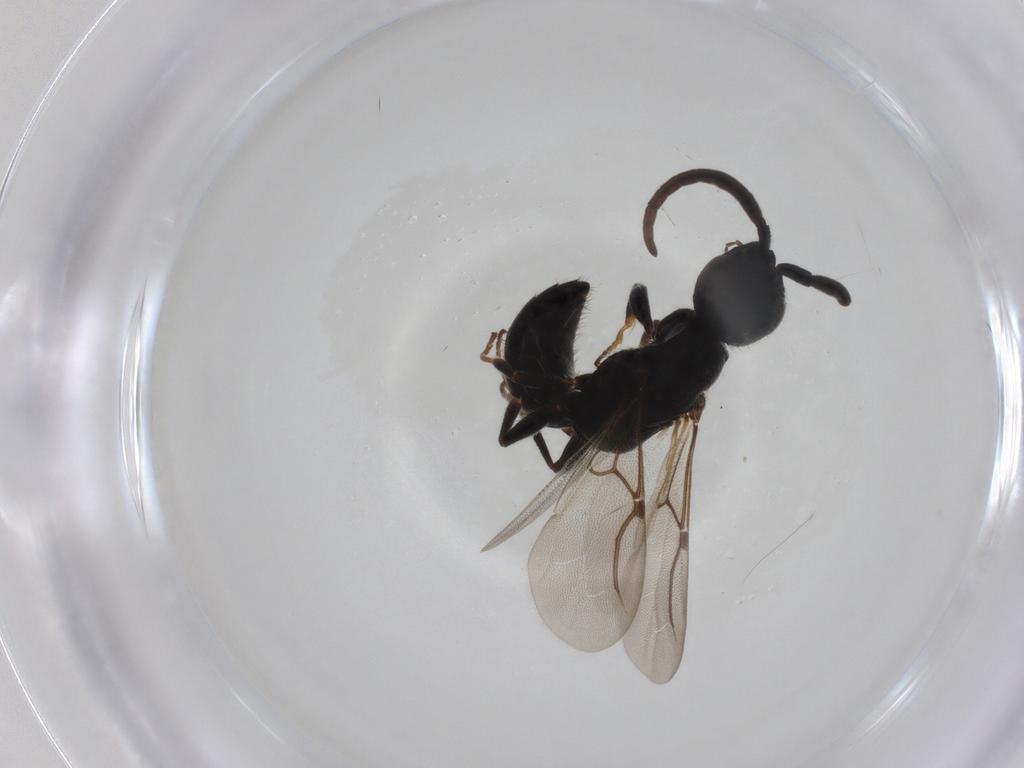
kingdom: Animalia
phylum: Arthropoda
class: Insecta
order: Hymenoptera
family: Bethylidae
